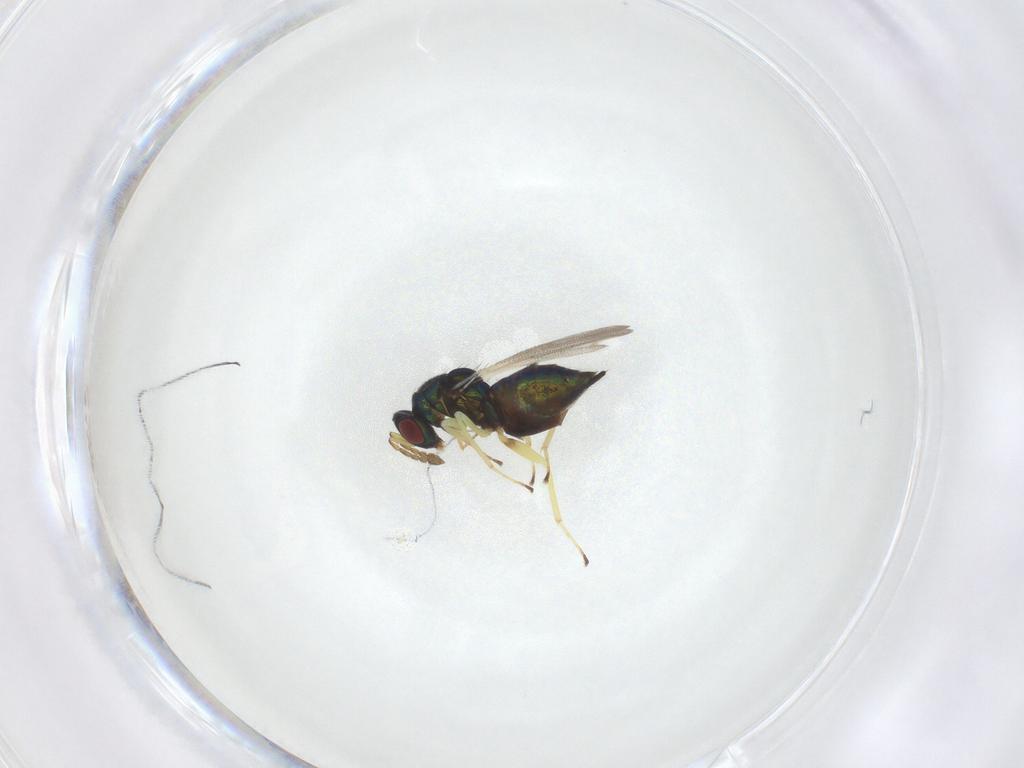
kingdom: Animalia
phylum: Arthropoda
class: Insecta
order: Hymenoptera
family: Eulophidae
